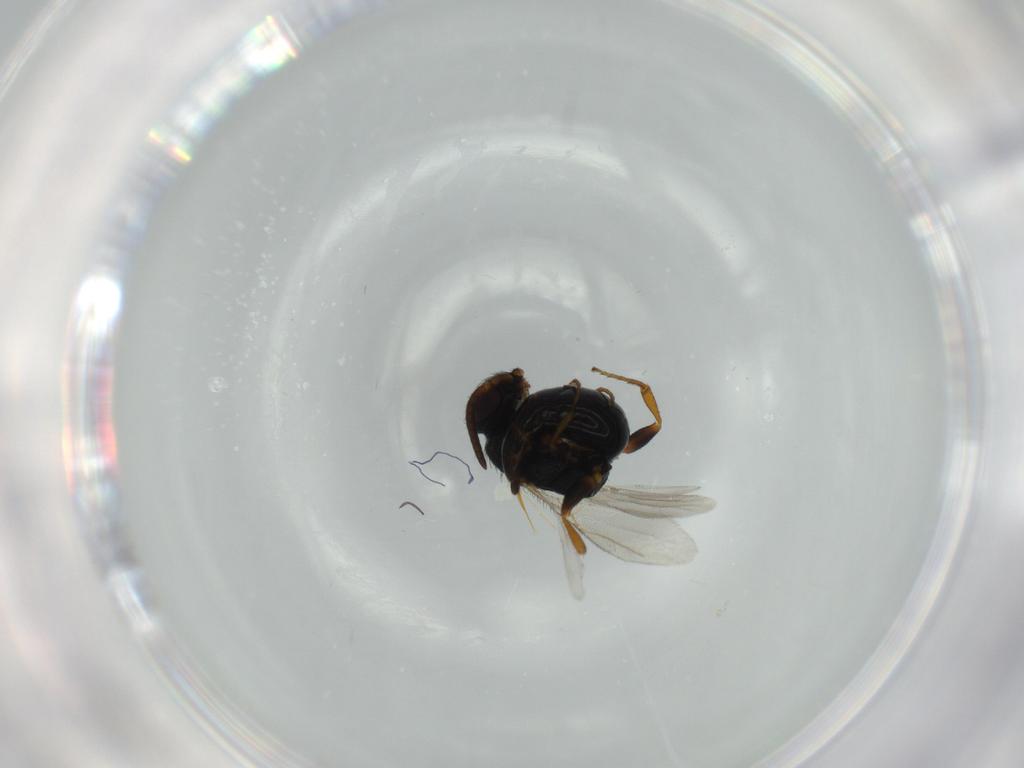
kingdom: Animalia
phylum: Arthropoda
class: Insecta
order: Hymenoptera
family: Bethylidae
